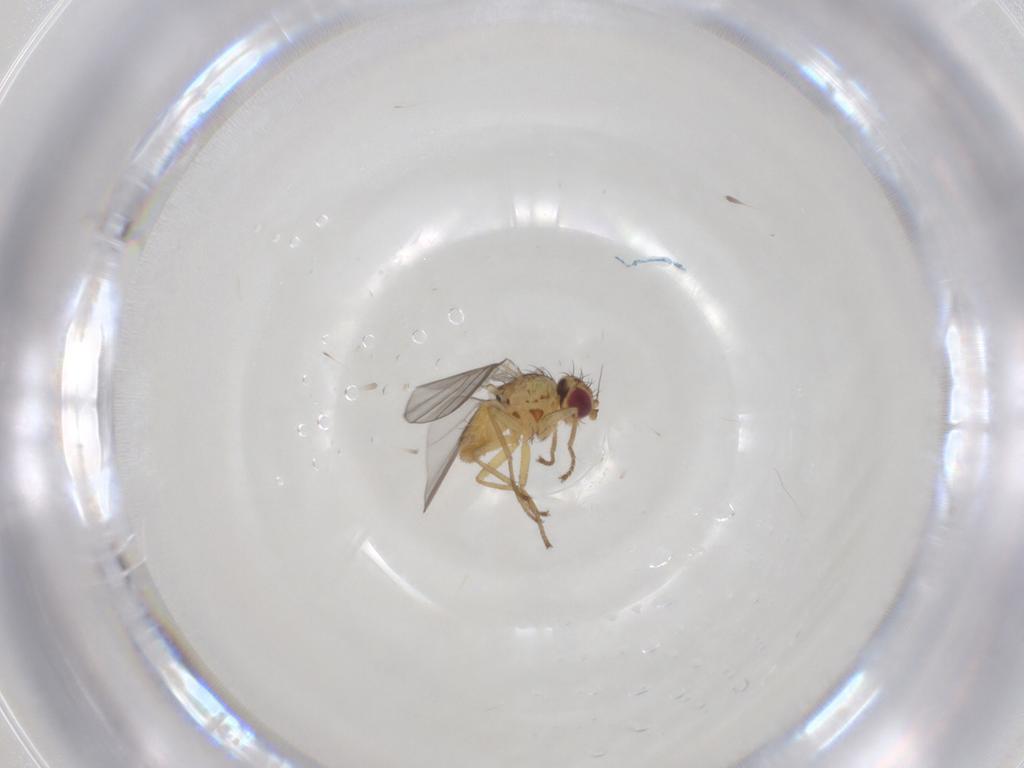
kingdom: Animalia
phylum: Arthropoda
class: Insecta
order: Diptera
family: Agromyzidae
